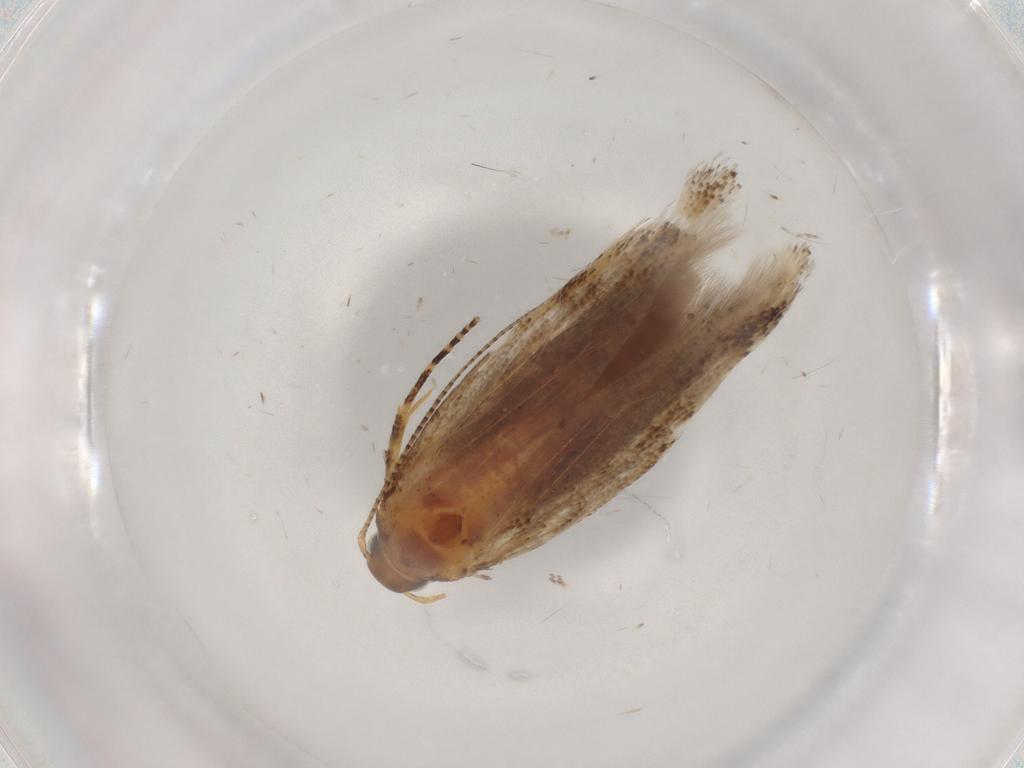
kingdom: Animalia
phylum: Arthropoda
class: Insecta
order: Lepidoptera
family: Gelechiidae
